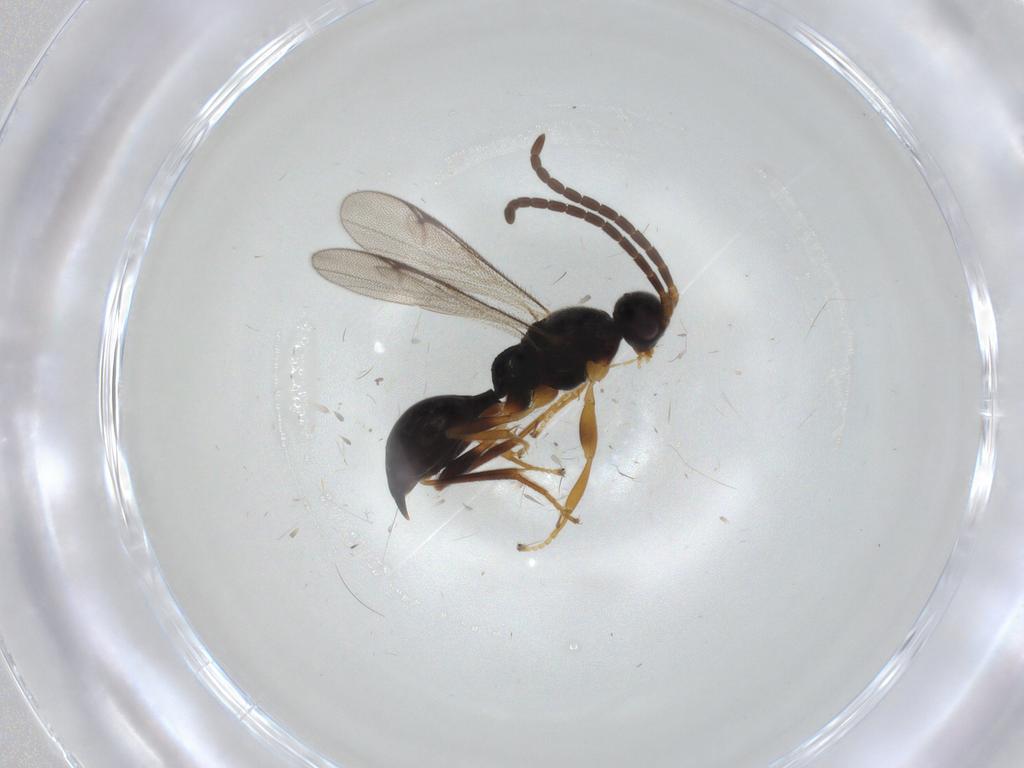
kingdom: Animalia
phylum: Arthropoda
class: Insecta
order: Hymenoptera
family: Proctotrupidae
